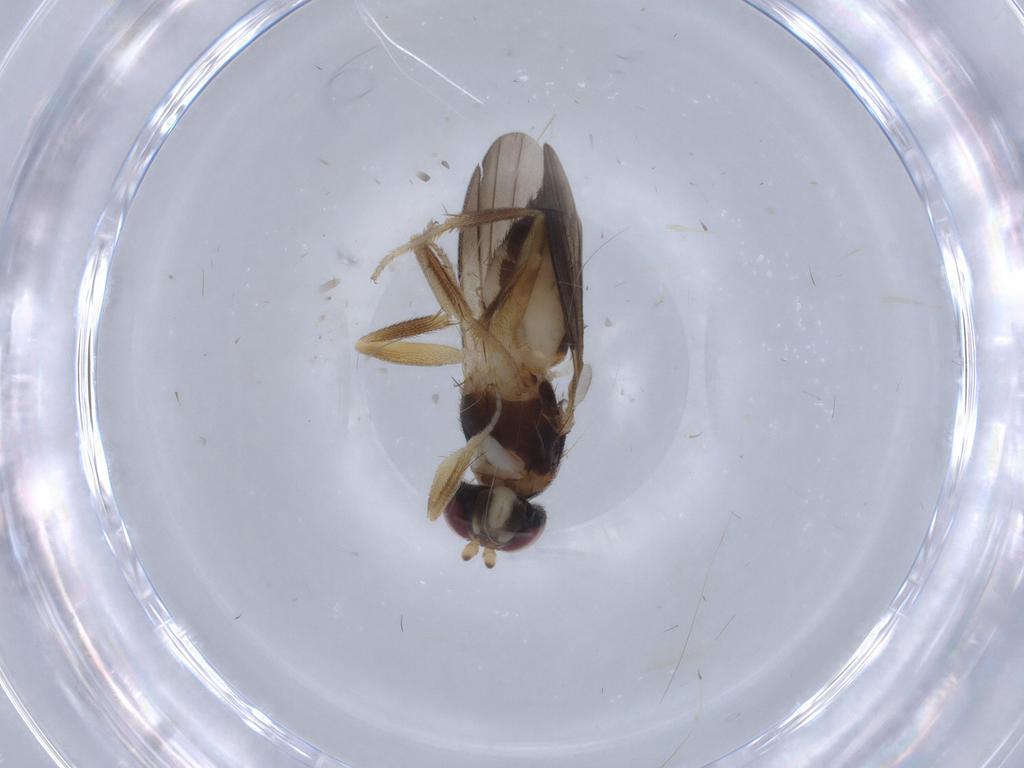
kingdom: Animalia
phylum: Arthropoda
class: Insecta
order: Diptera
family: Clusiidae
